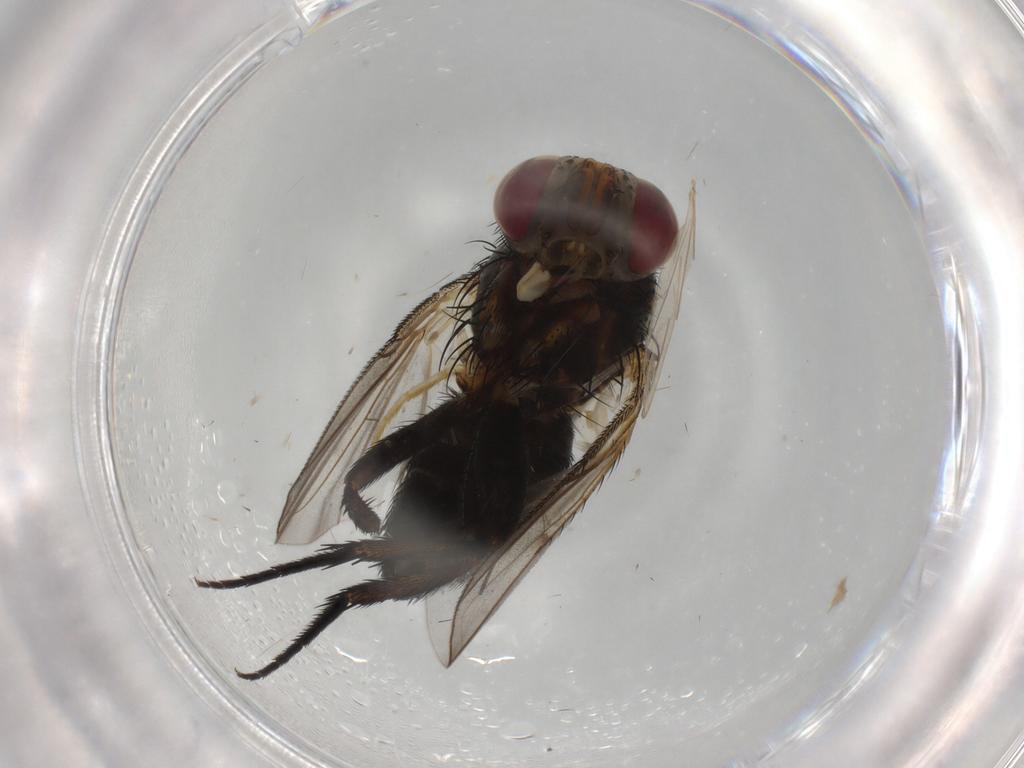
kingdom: Animalia
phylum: Arthropoda
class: Insecta
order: Diptera
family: Tachinidae
